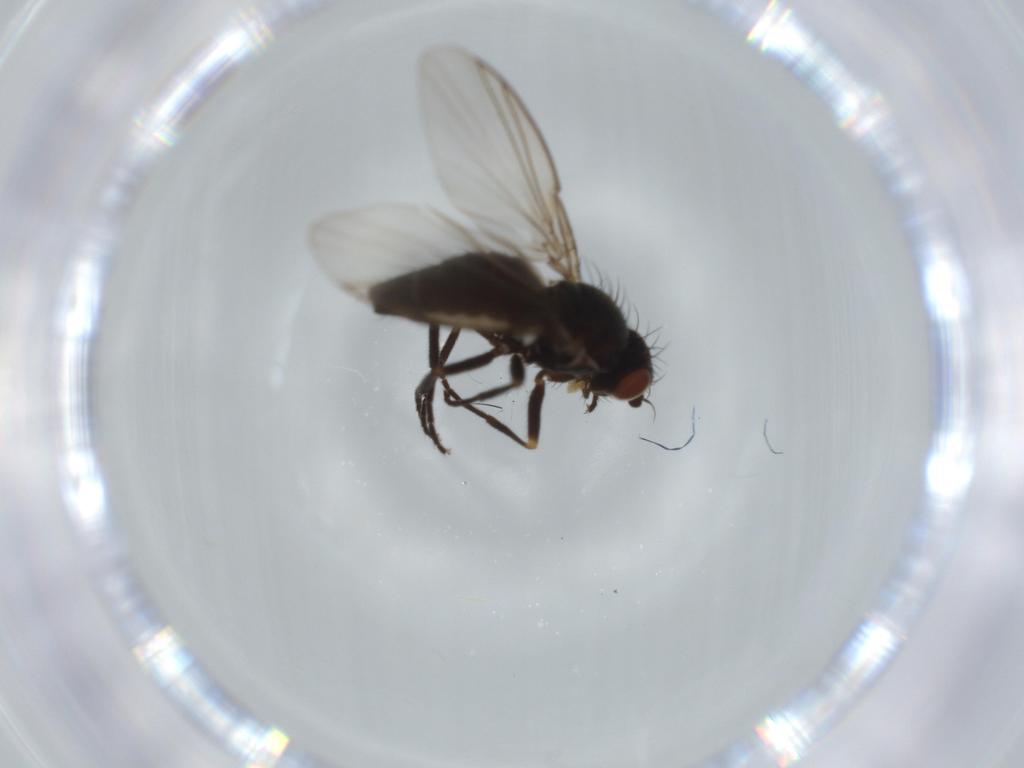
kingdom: Animalia
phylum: Arthropoda
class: Insecta
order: Diptera
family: Agromyzidae
